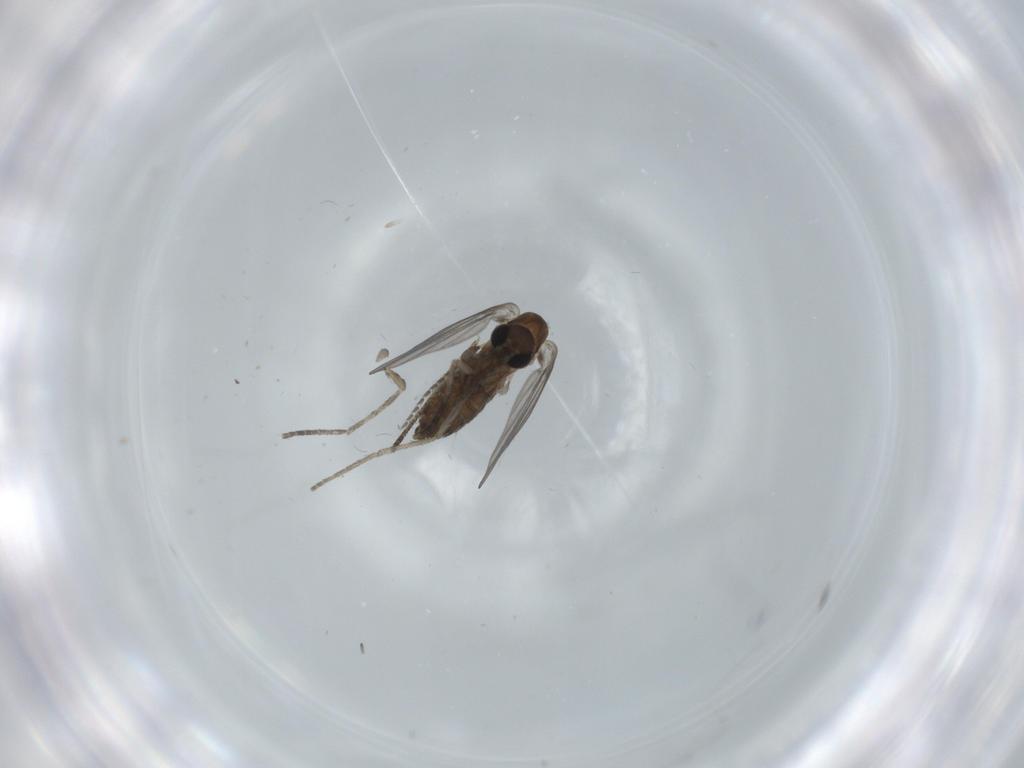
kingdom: Animalia
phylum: Arthropoda
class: Insecta
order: Diptera
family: Psychodidae
